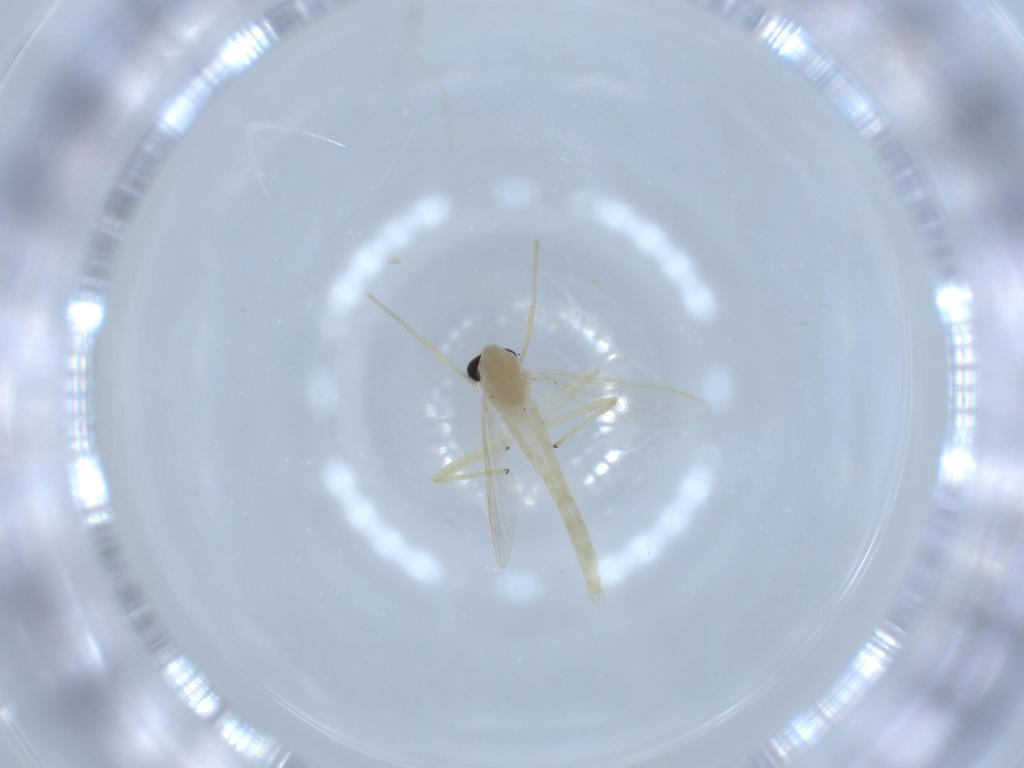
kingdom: Animalia
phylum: Arthropoda
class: Insecta
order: Diptera
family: Chironomidae
